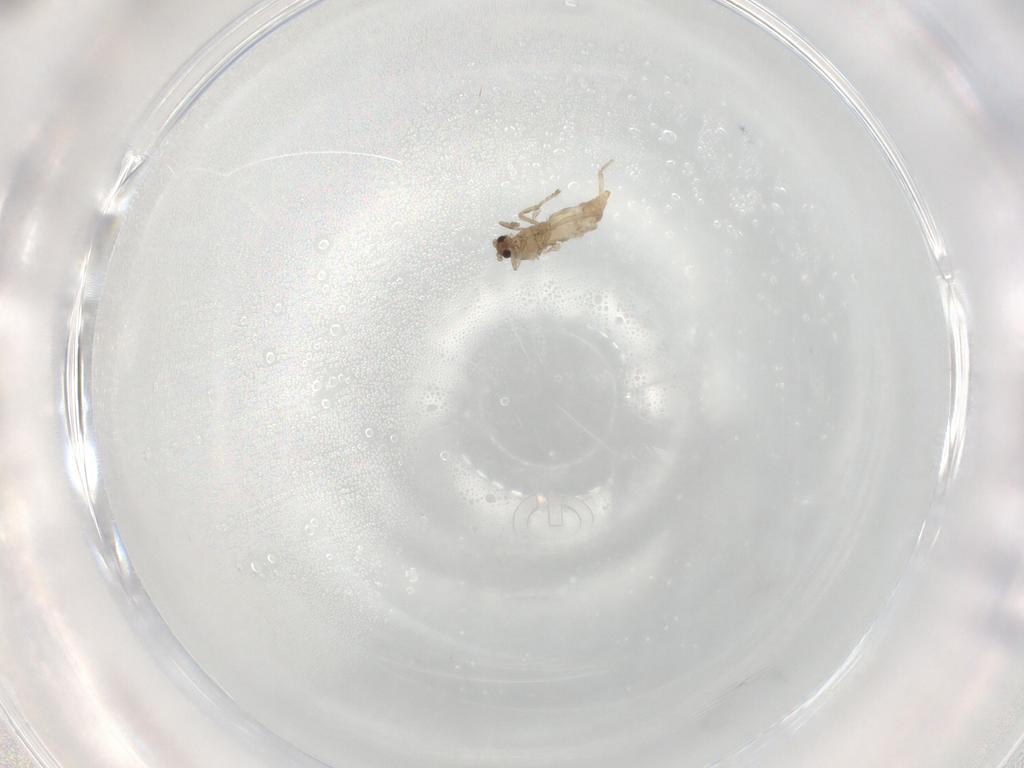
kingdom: Animalia
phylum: Arthropoda
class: Insecta
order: Diptera
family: Cecidomyiidae
